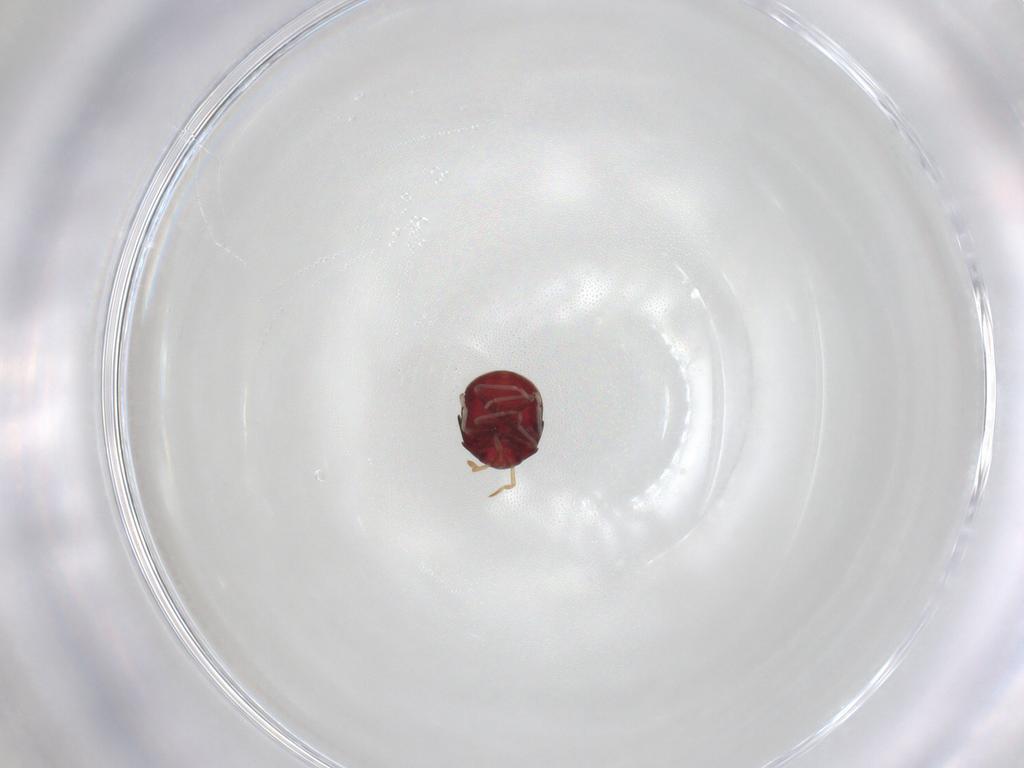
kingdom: Animalia
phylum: Arthropoda
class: Insecta
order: Hemiptera
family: Anthocoridae
